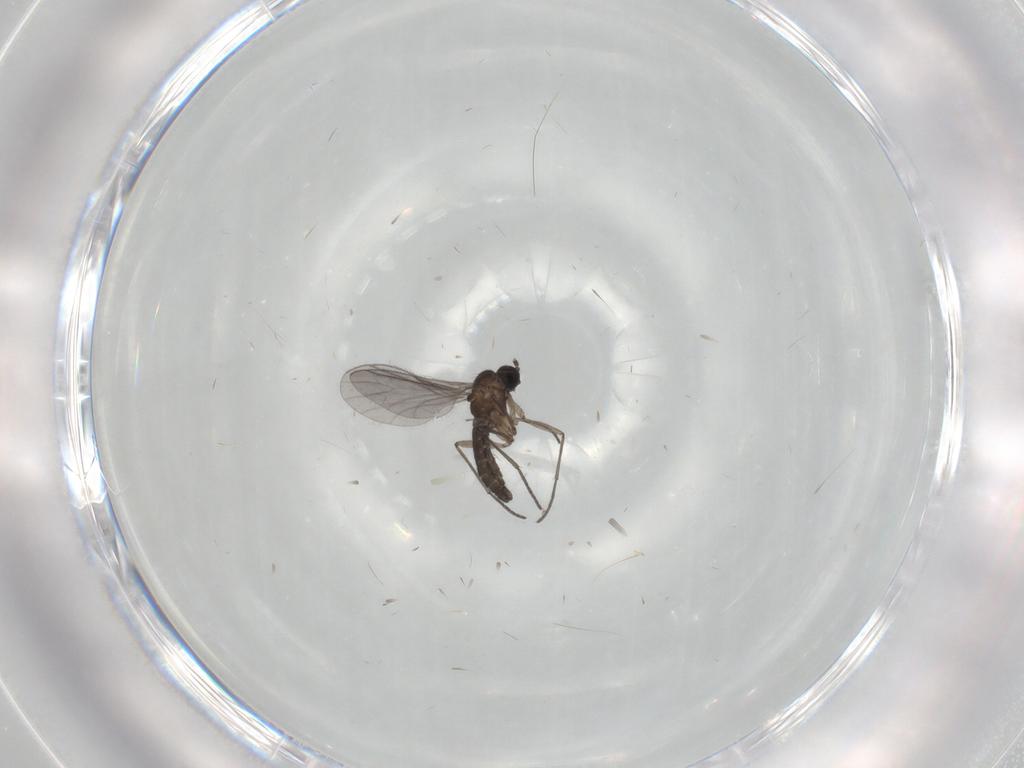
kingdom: Animalia
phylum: Arthropoda
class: Insecta
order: Diptera
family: Sciaridae
